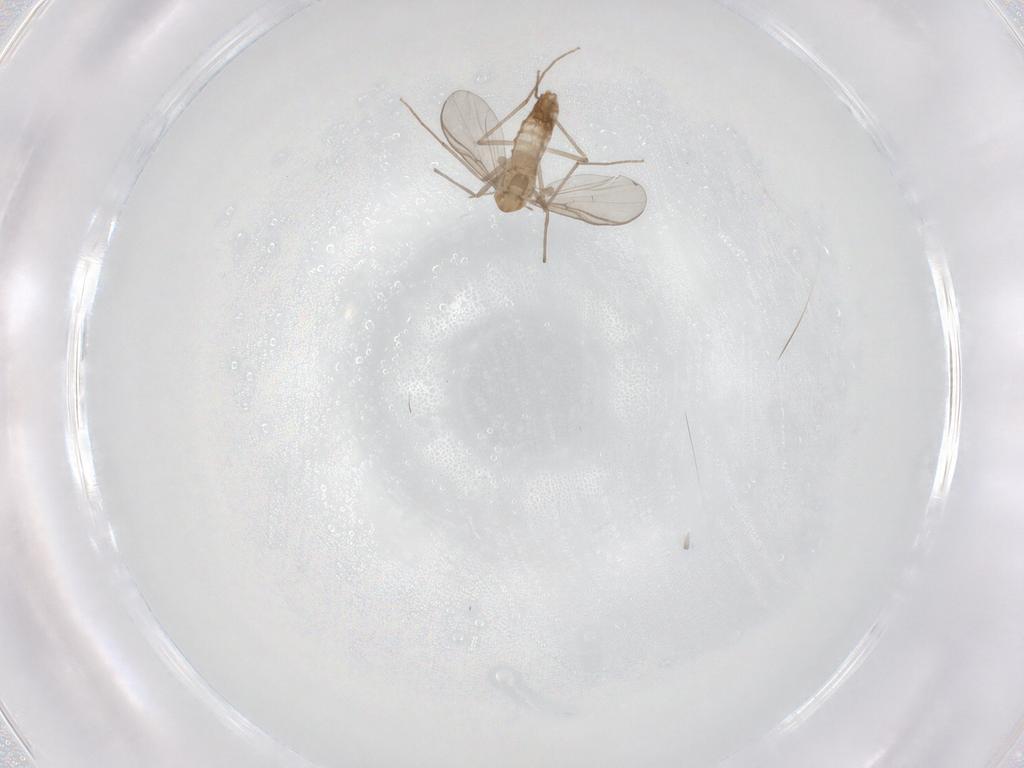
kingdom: Animalia
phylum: Arthropoda
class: Insecta
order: Diptera
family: Chironomidae
